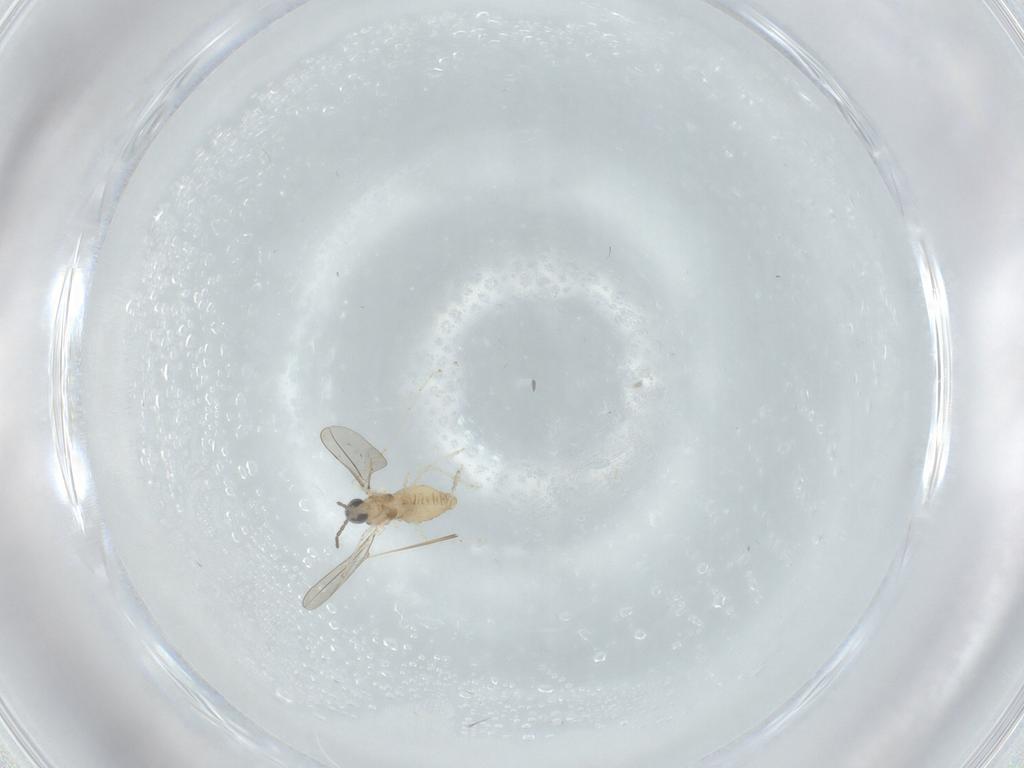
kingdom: Animalia
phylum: Arthropoda
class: Insecta
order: Diptera
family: Cecidomyiidae
